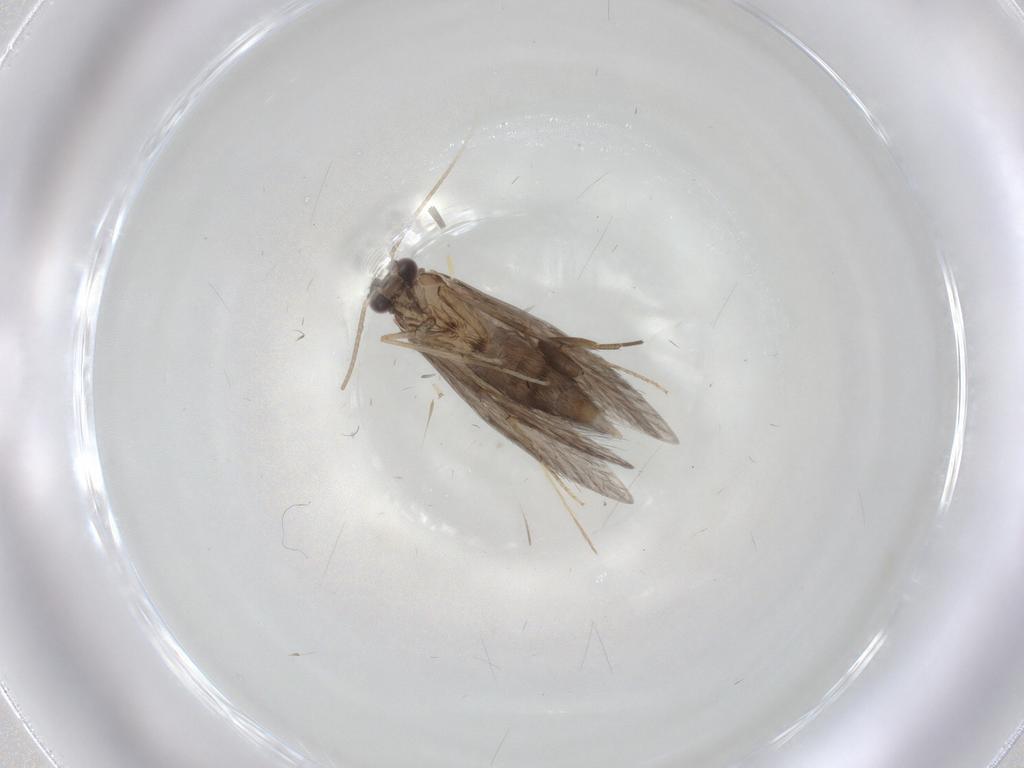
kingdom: Animalia
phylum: Arthropoda
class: Insecta
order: Trichoptera
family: Hydroptilidae
